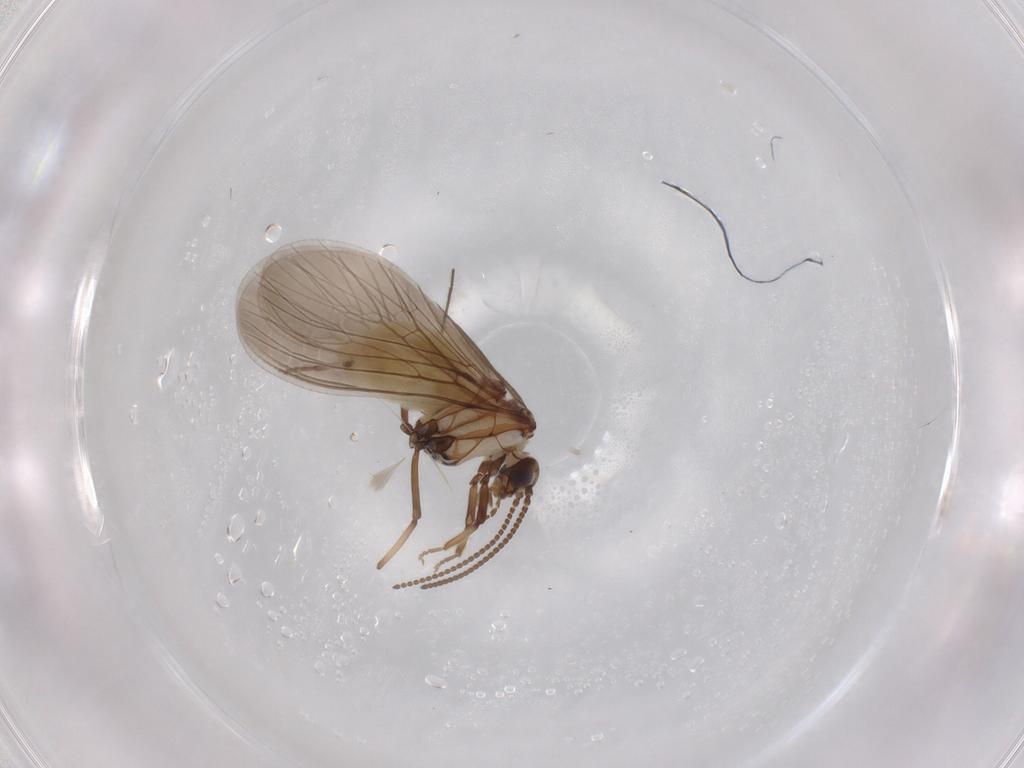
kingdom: Animalia
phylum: Arthropoda
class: Insecta
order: Neuroptera
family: Coniopterygidae
